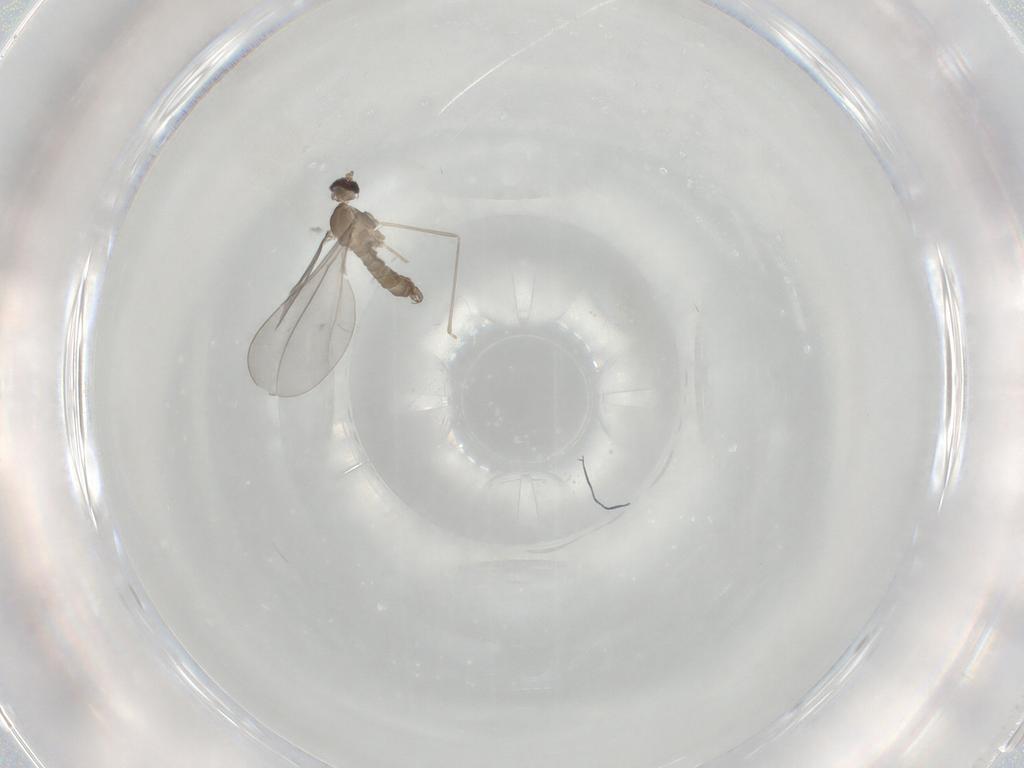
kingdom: Animalia
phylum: Arthropoda
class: Insecta
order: Diptera
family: Cecidomyiidae
